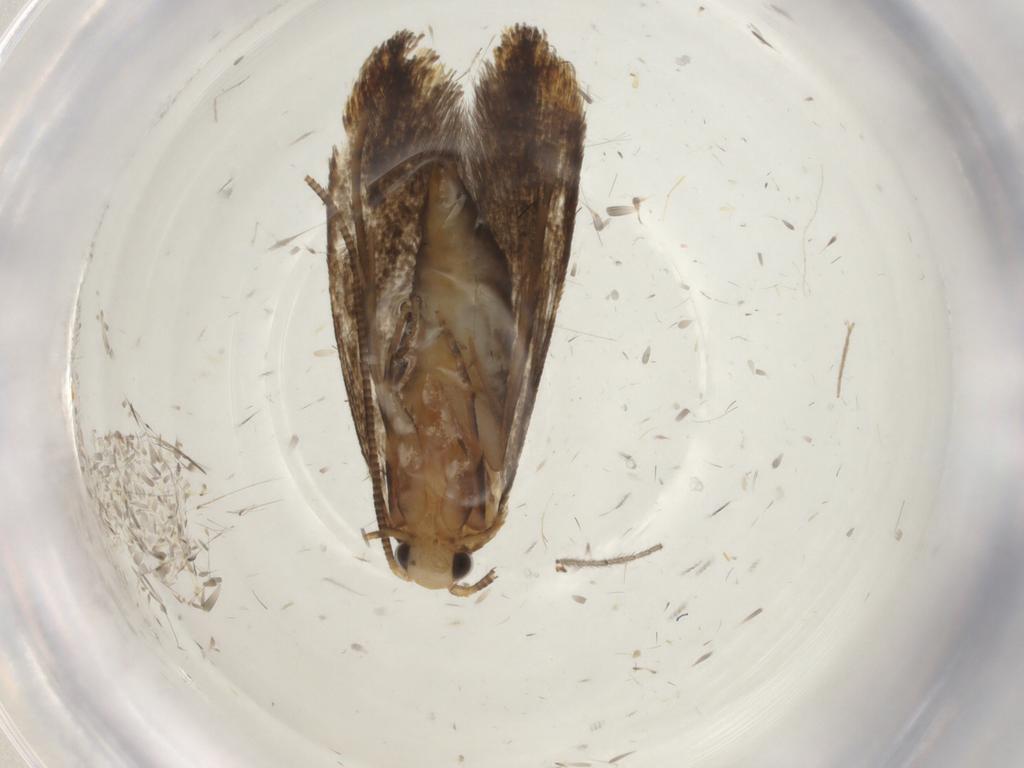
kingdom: Animalia
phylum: Arthropoda
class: Insecta
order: Lepidoptera
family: Tineidae
